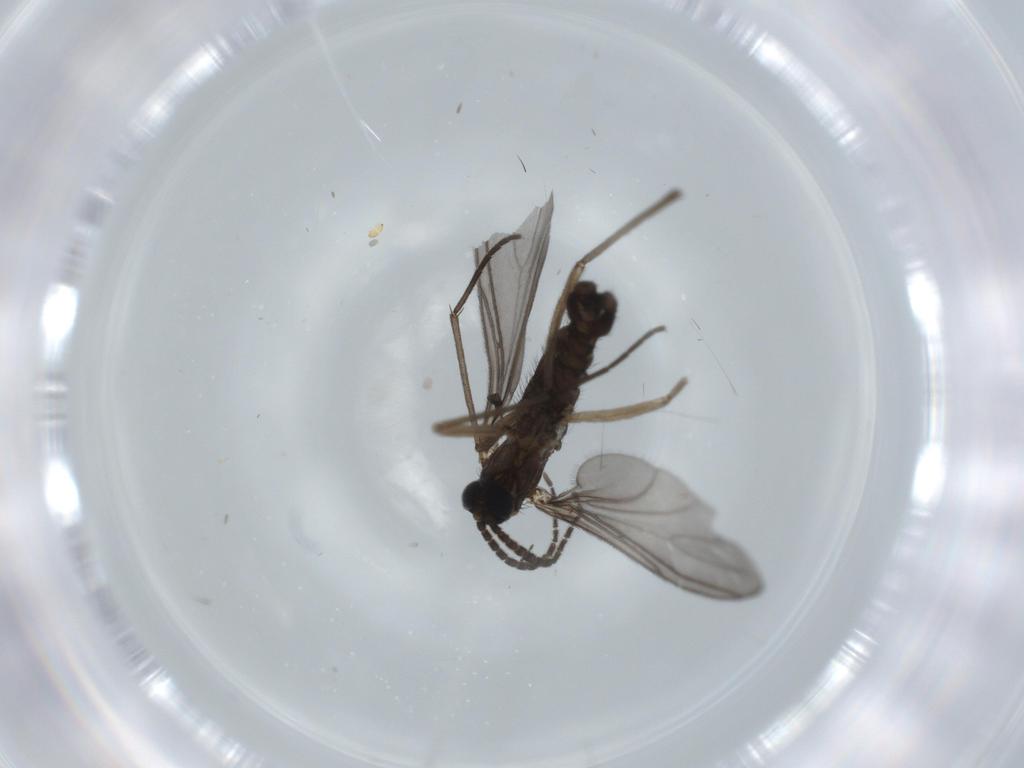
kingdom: Animalia
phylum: Arthropoda
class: Insecta
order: Diptera
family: Sciaridae
